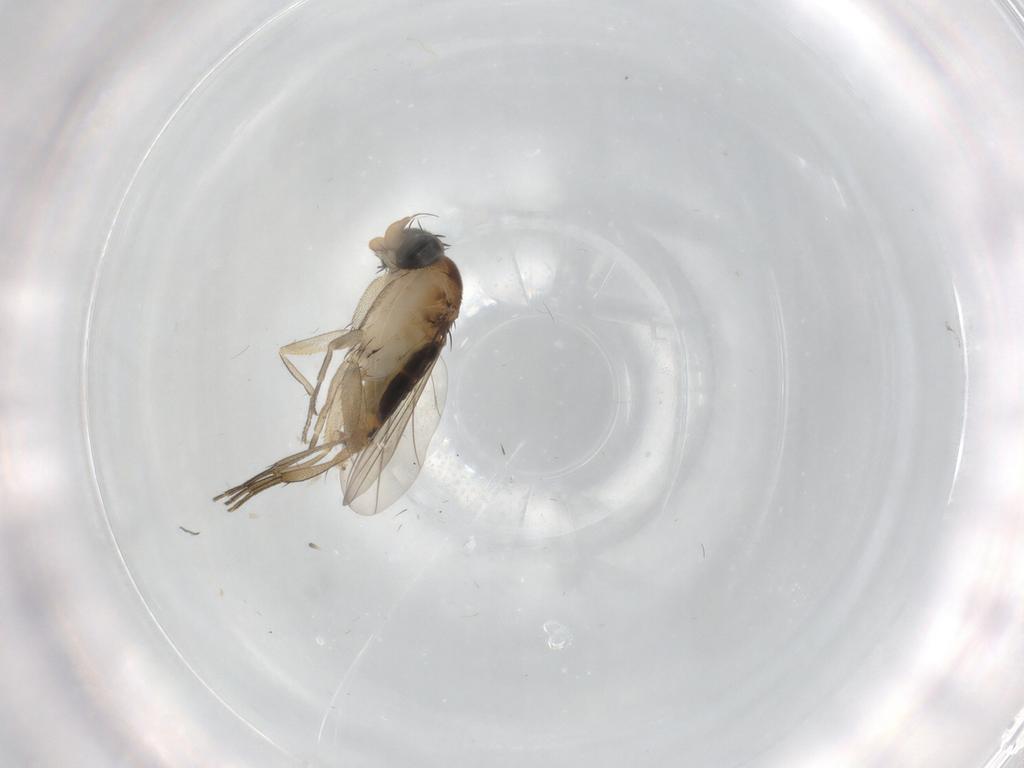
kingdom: Animalia
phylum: Arthropoda
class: Insecta
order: Diptera
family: Phoridae
